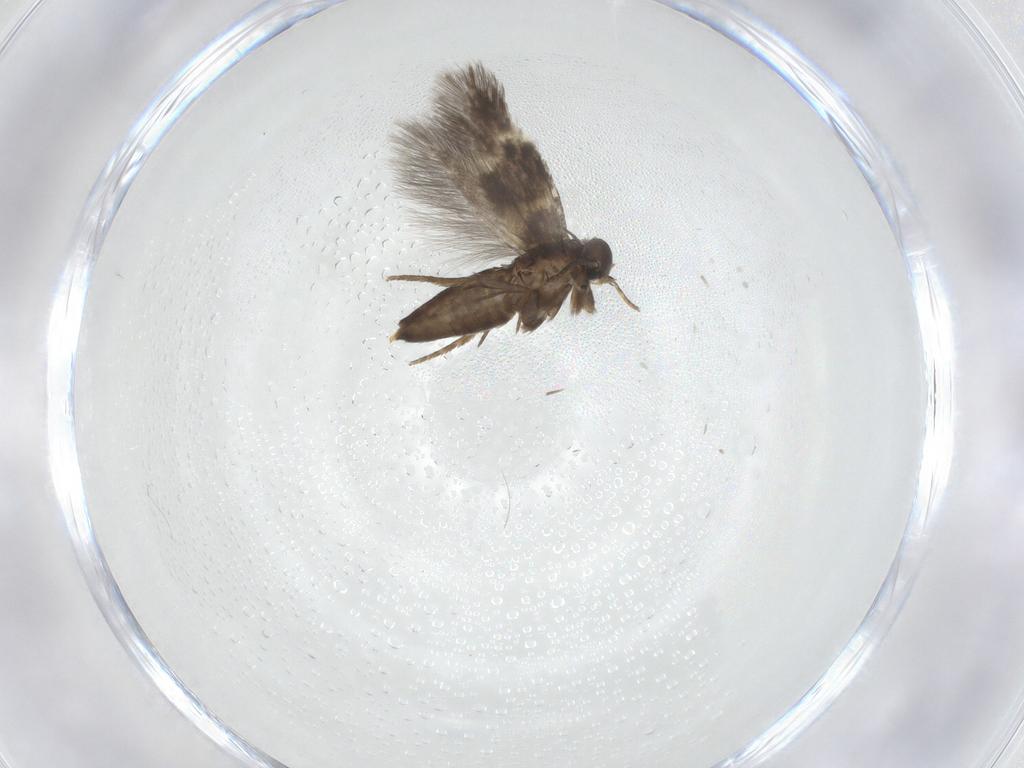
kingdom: Animalia
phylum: Arthropoda
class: Insecta
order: Lepidoptera
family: Heliozelidae
